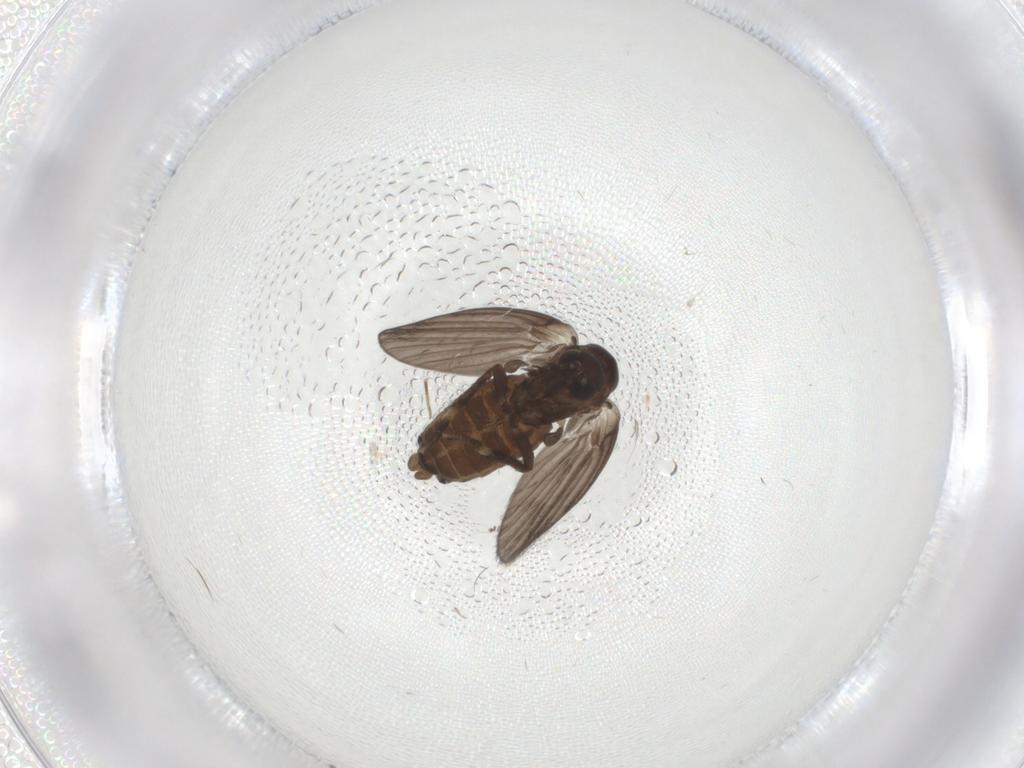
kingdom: Animalia
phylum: Arthropoda
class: Insecta
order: Diptera
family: Psychodidae
